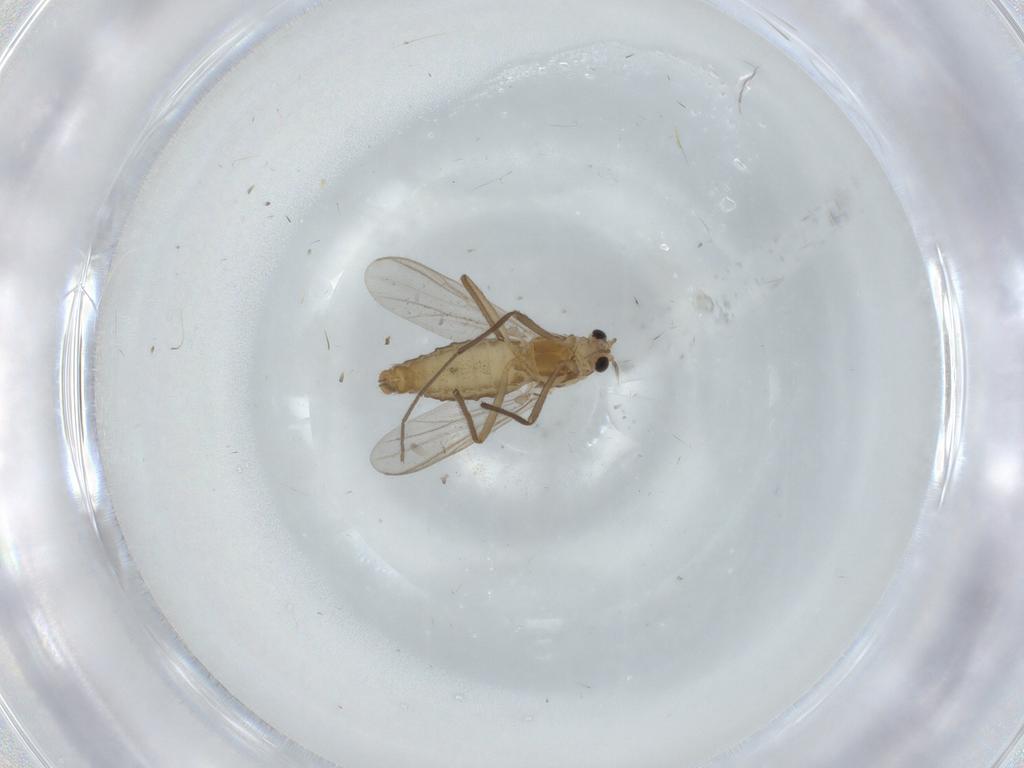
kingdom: Animalia
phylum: Arthropoda
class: Insecta
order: Diptera
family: Chironomidae
